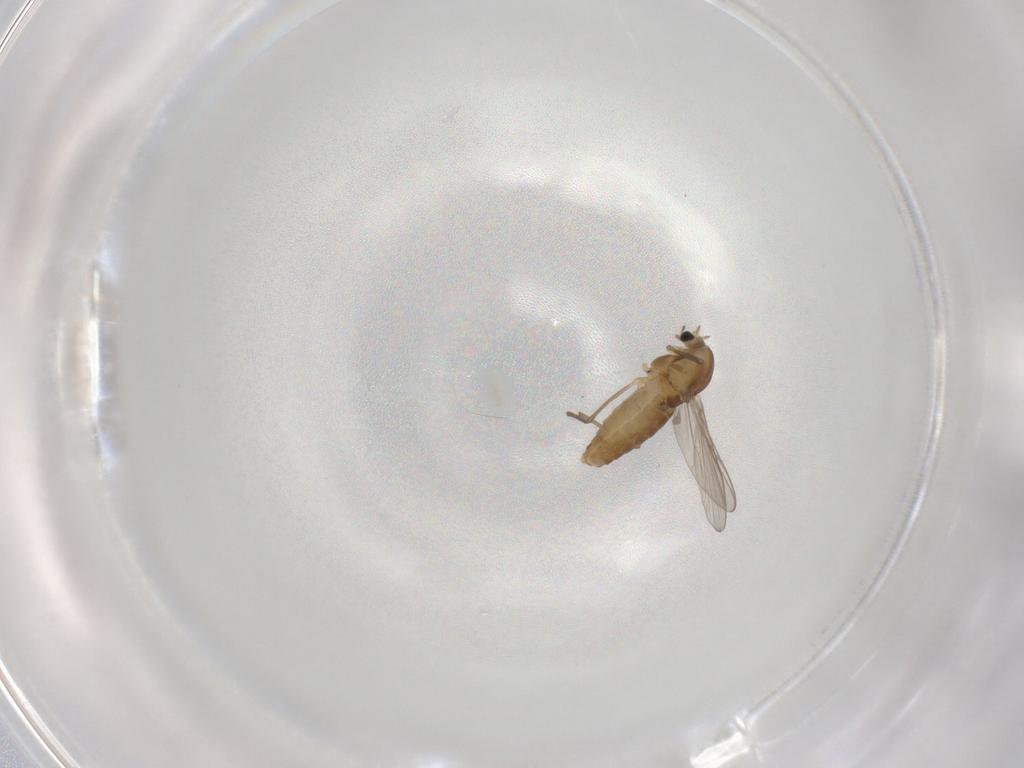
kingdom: Animalia
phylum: Arthropoda
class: Insecta
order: Diptera
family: Chironomidae
